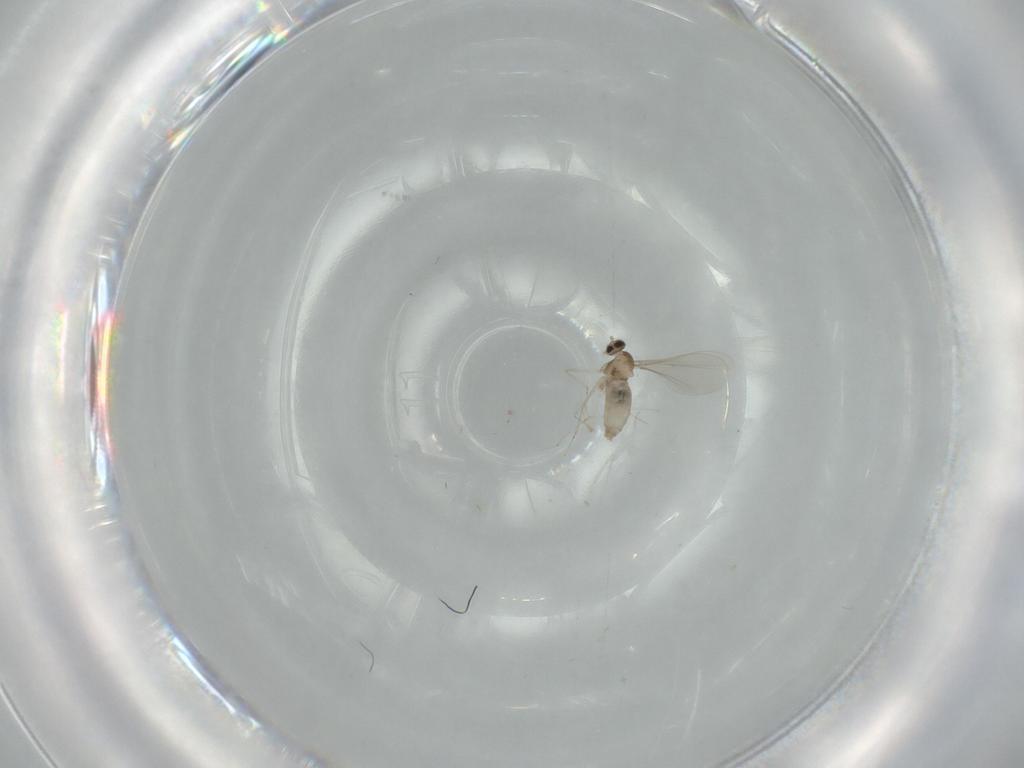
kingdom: Animalia
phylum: Arthropoda
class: Insecta
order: Diptera
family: Cecidomyiidae
